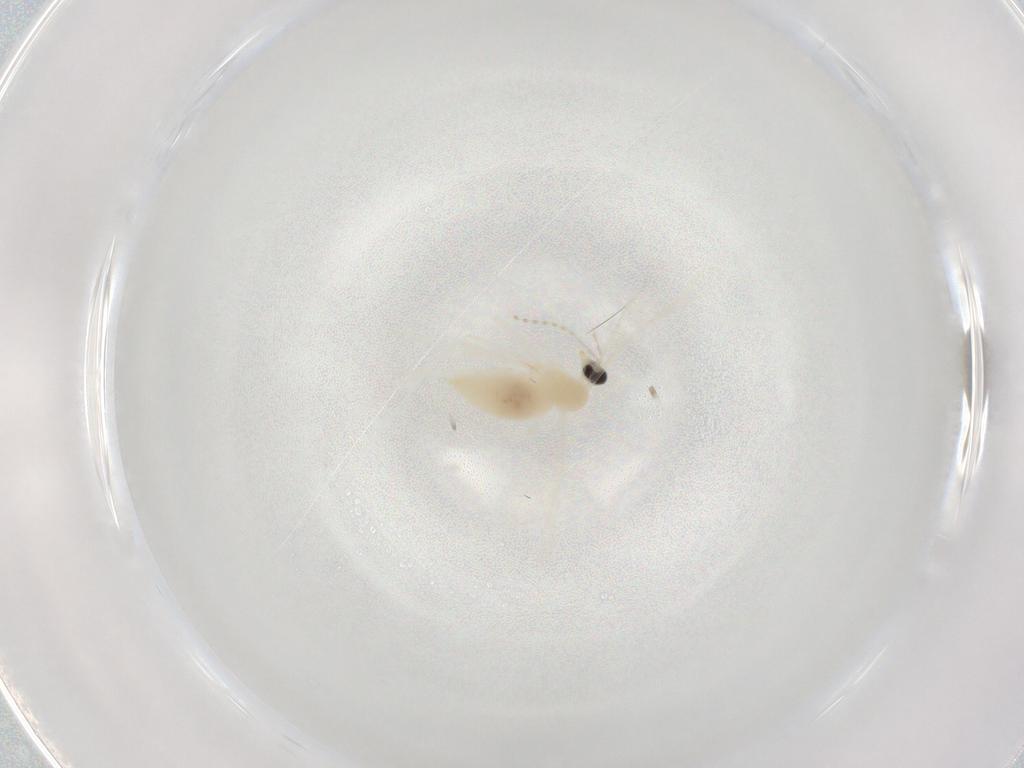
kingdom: Animalia
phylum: Arthropoda
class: Insecta
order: Diptera
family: Cecidomyiidae
